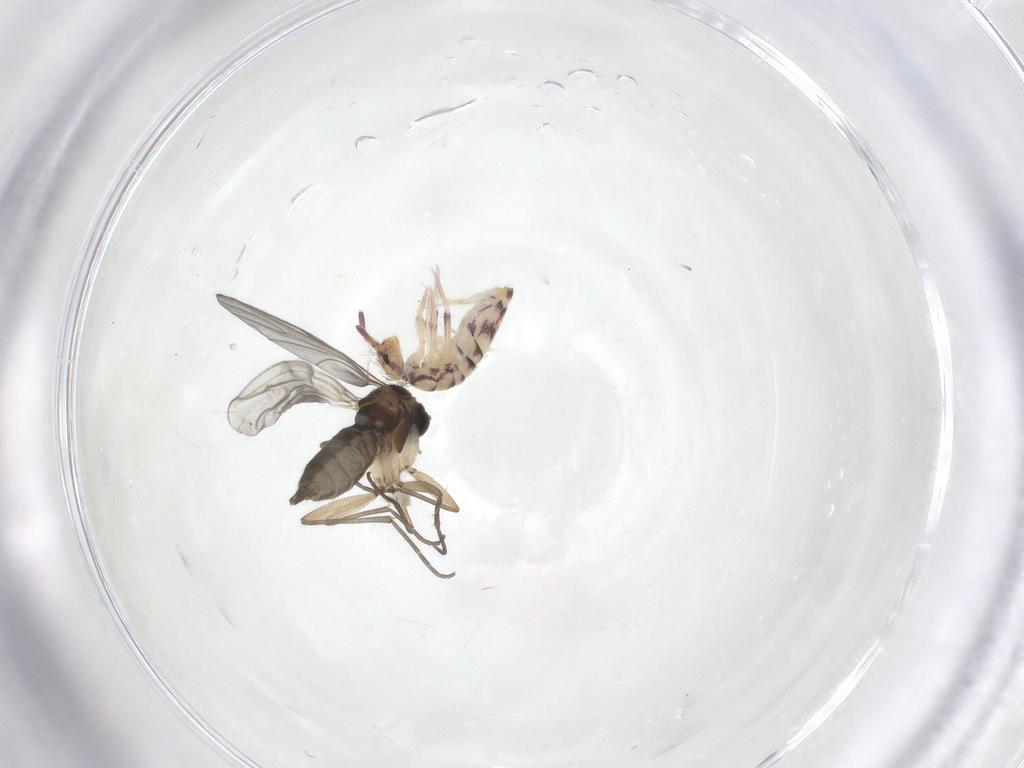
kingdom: Animalia
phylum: Arthropoda
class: Insecta
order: Diptera
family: Sciaridae
